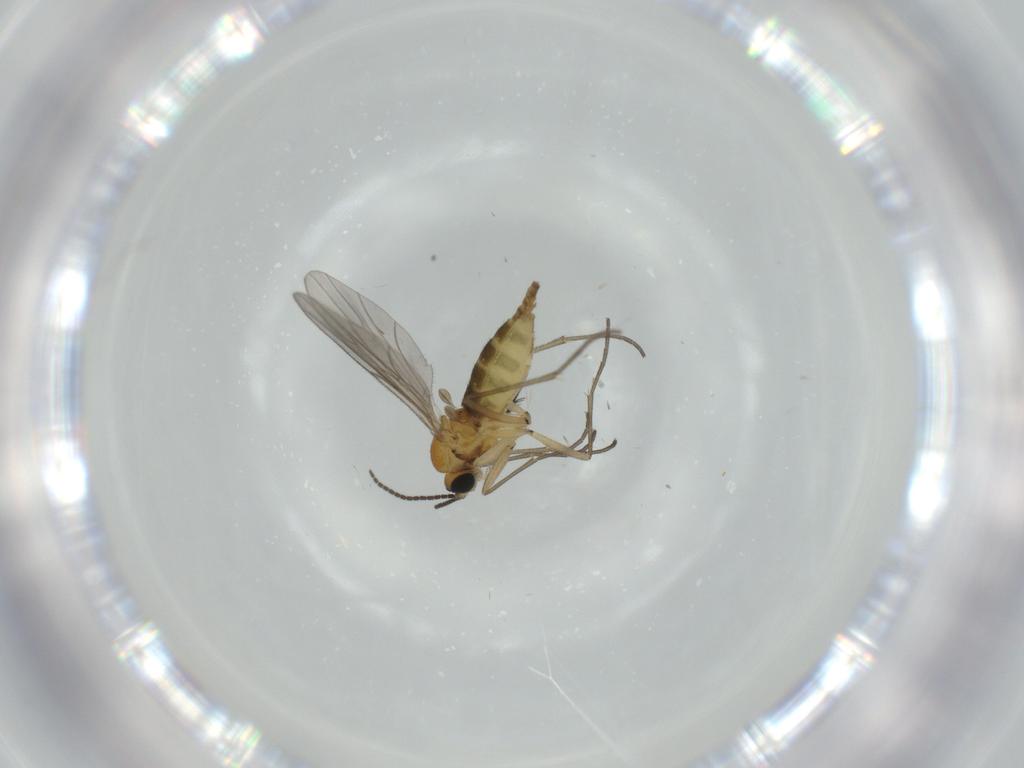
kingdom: Animalia
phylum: Arthropoda
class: Insecta
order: Diptera
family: Sciaridae
